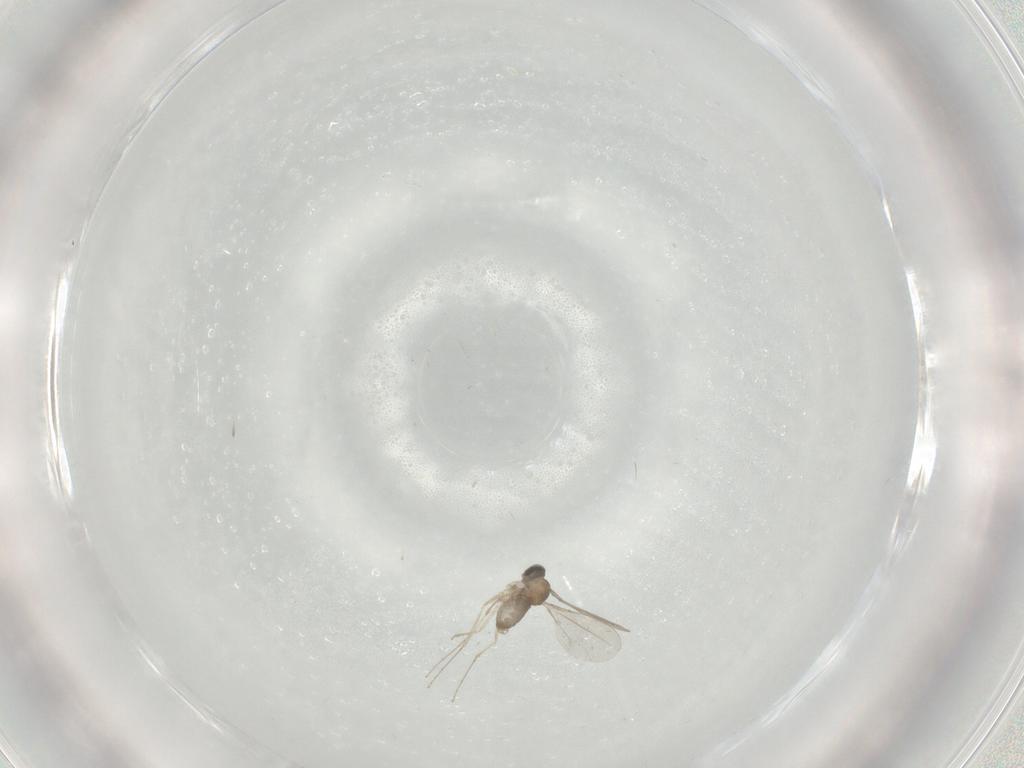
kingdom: Animalia
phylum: Arthropoda
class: Insecta
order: Diptera
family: Cecidomyiidae
